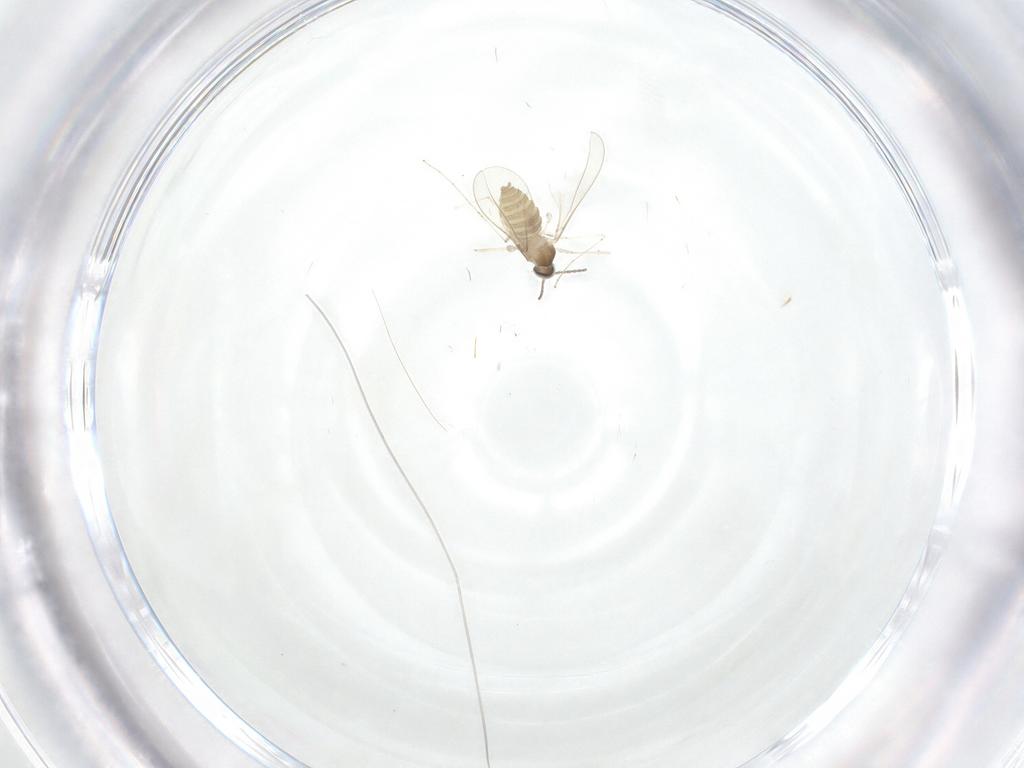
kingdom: Animalia
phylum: Arthropoda
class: Insecta
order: Diptera
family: Cecidomyiidae
